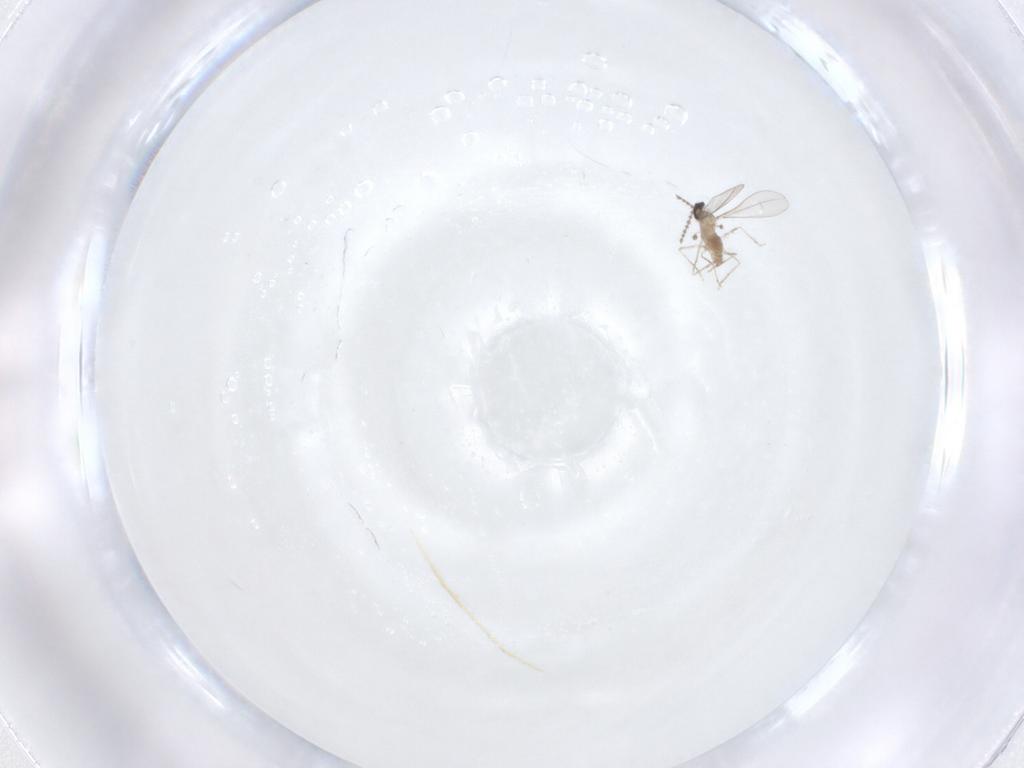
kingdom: Animalia
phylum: Arthropoda
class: Insecta
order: Diptera
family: Cecidomyiidae
